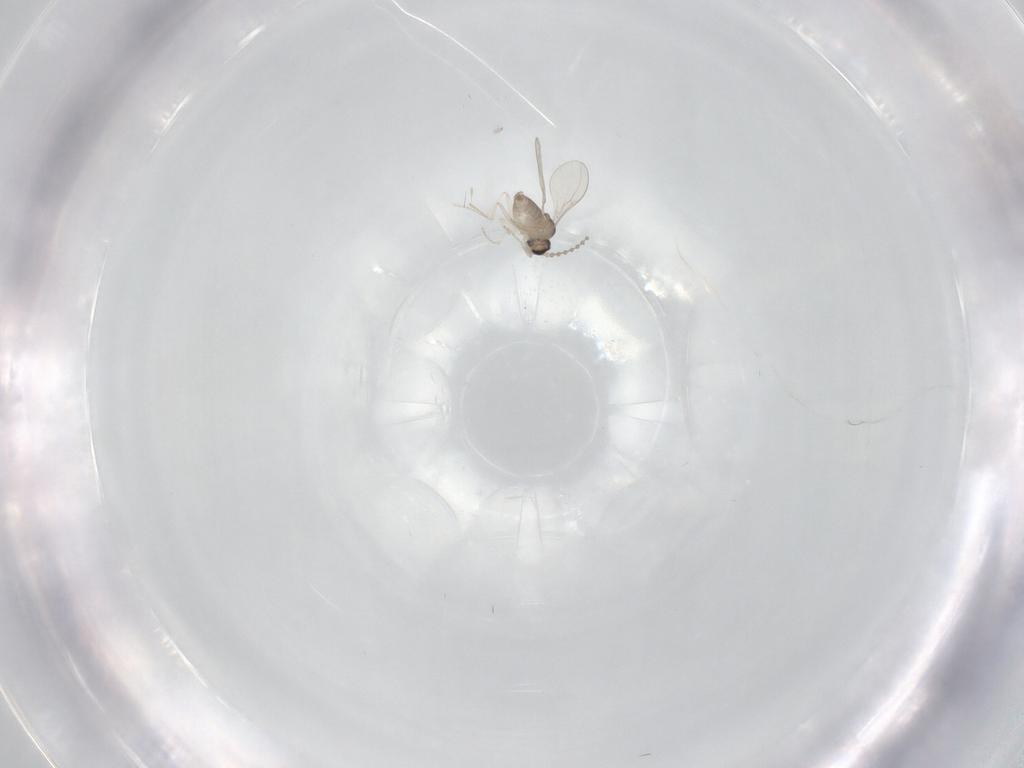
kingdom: Animalia
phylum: Arthropoda
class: Insecta
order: Diptera
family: Cecidomyiidae
